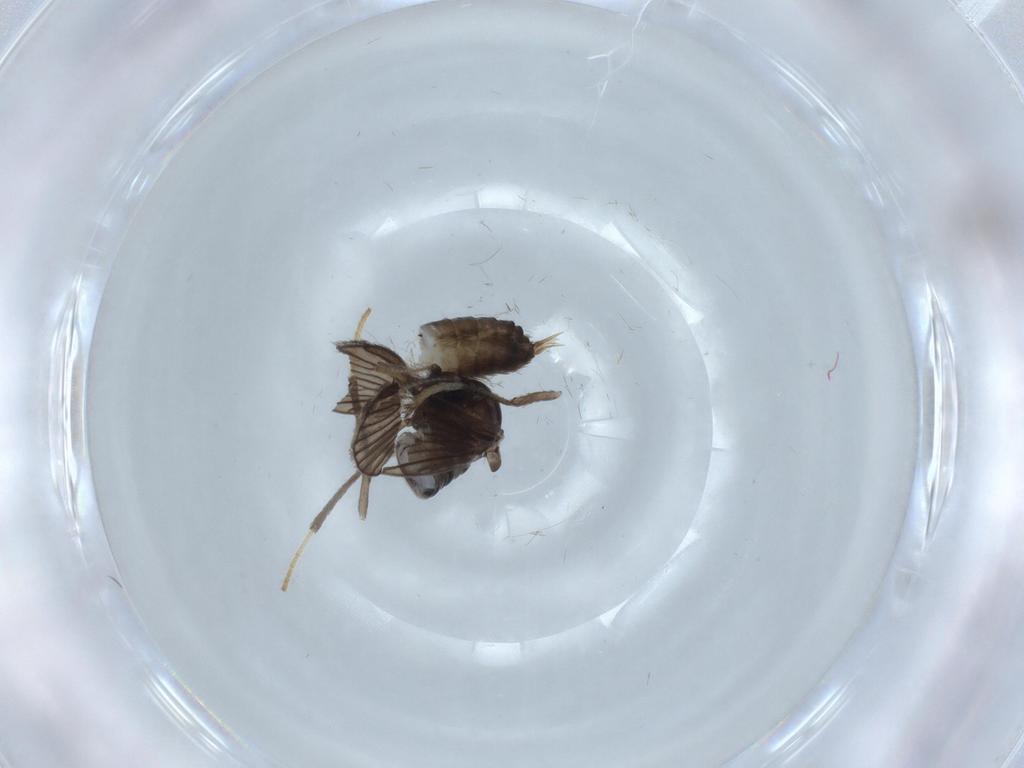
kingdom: Animalia
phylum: Arthropoda
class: Insecta
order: Diptera
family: Psychodidae
